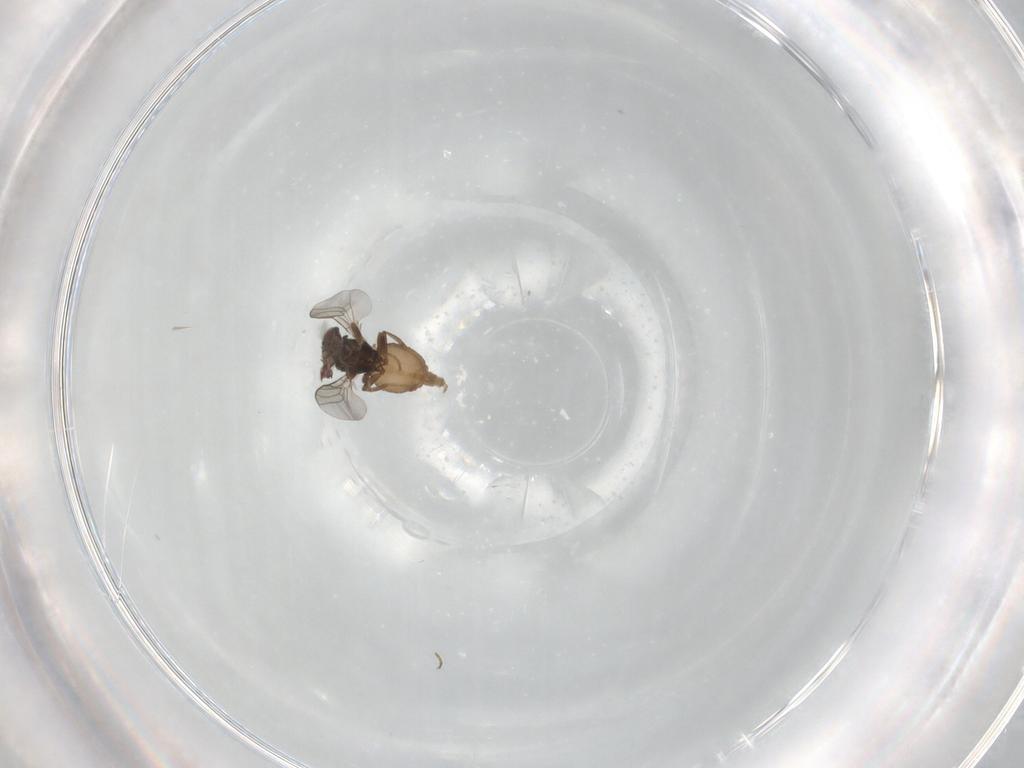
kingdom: Animalia
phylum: Arthropoda
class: Insecta
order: Diptera
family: Chloropidae
